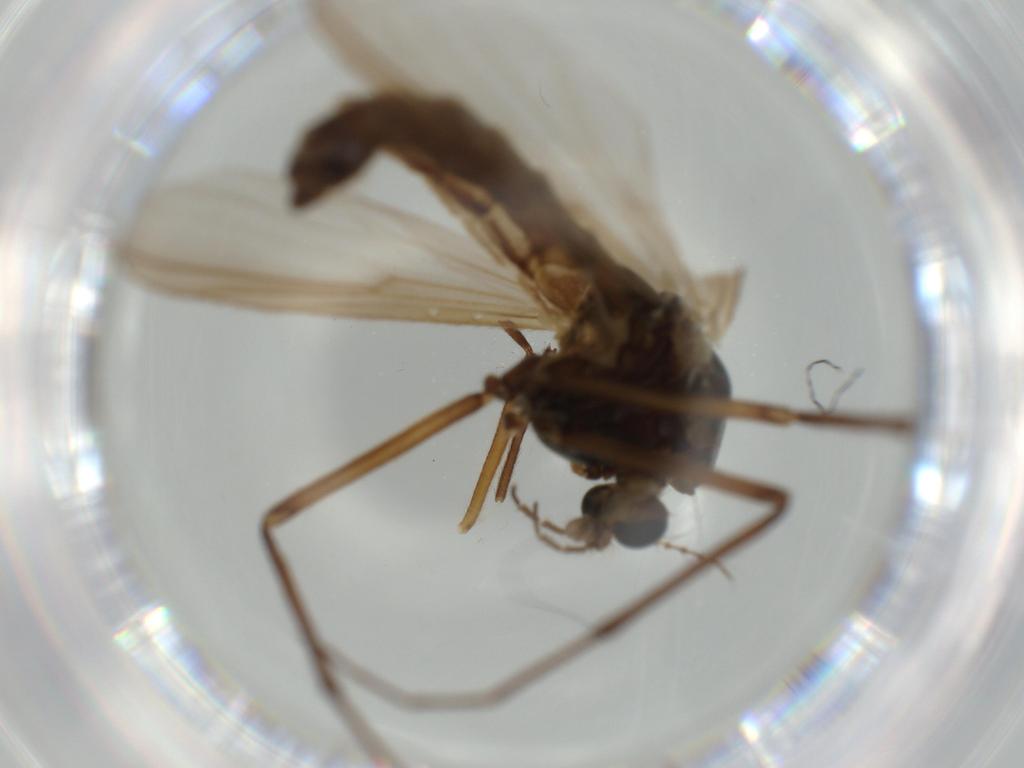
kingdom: Animalia
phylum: Arthropoda
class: Insecta
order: Diptera
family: Chironomidae
